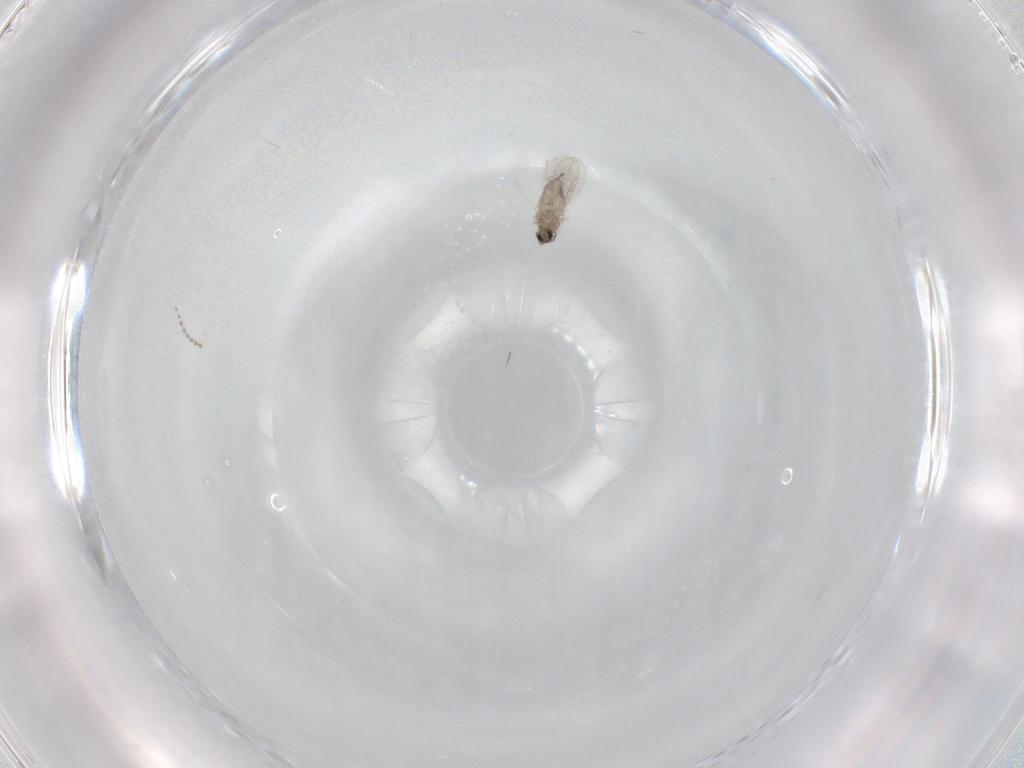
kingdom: Animalia
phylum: Arthropoda
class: Insecta
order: Diptera
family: Cecidomyiidae
